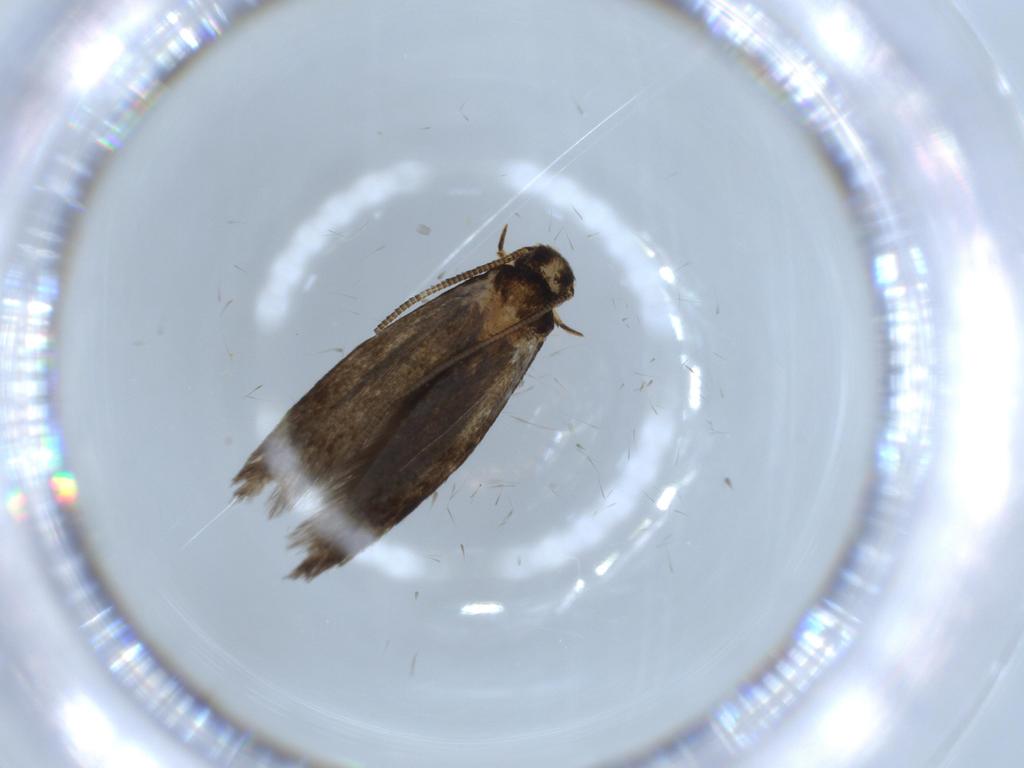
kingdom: Animalia
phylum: Arthropoda
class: Insecta
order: Lepidoptera
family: Tineidae
